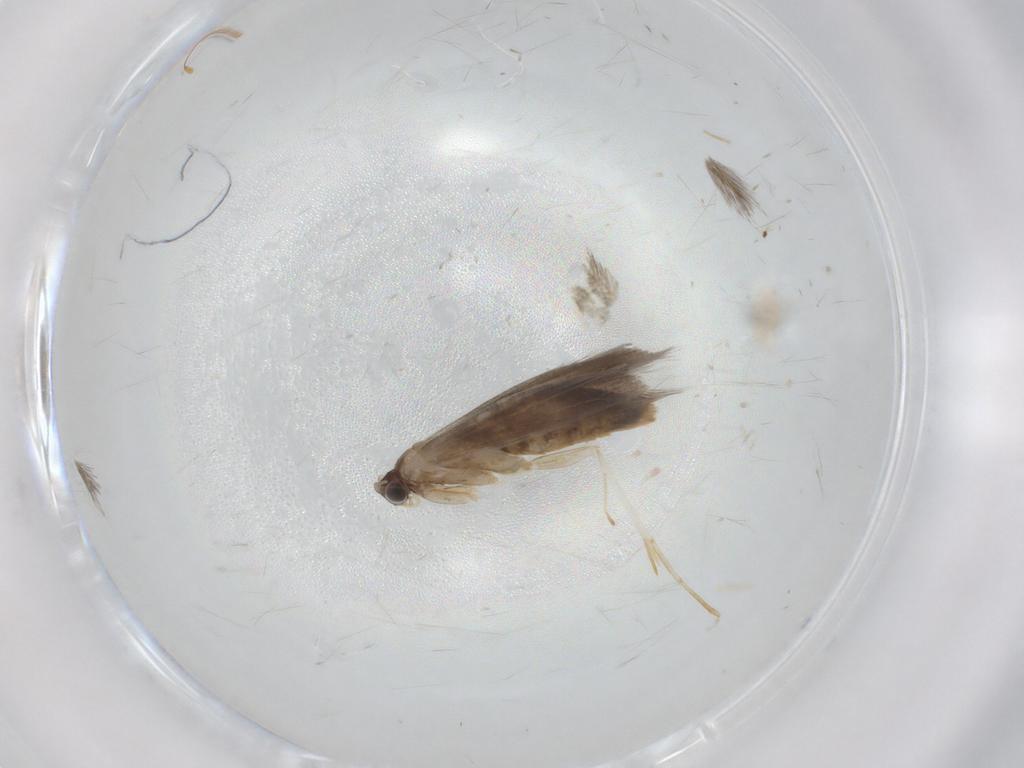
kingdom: Animalia
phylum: Arthropoda
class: Insecta
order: Lepidoptera
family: Tineidae
